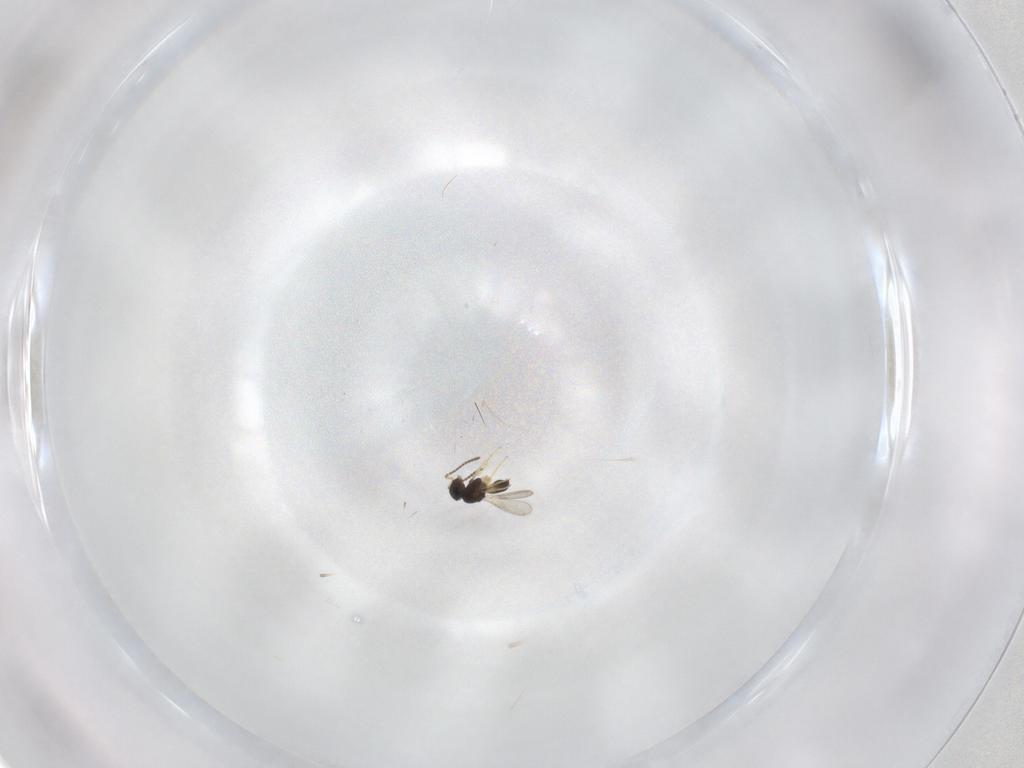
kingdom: Animalia
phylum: Arthropoda
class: Insecta
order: Hymenoptera
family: Scelionidae
